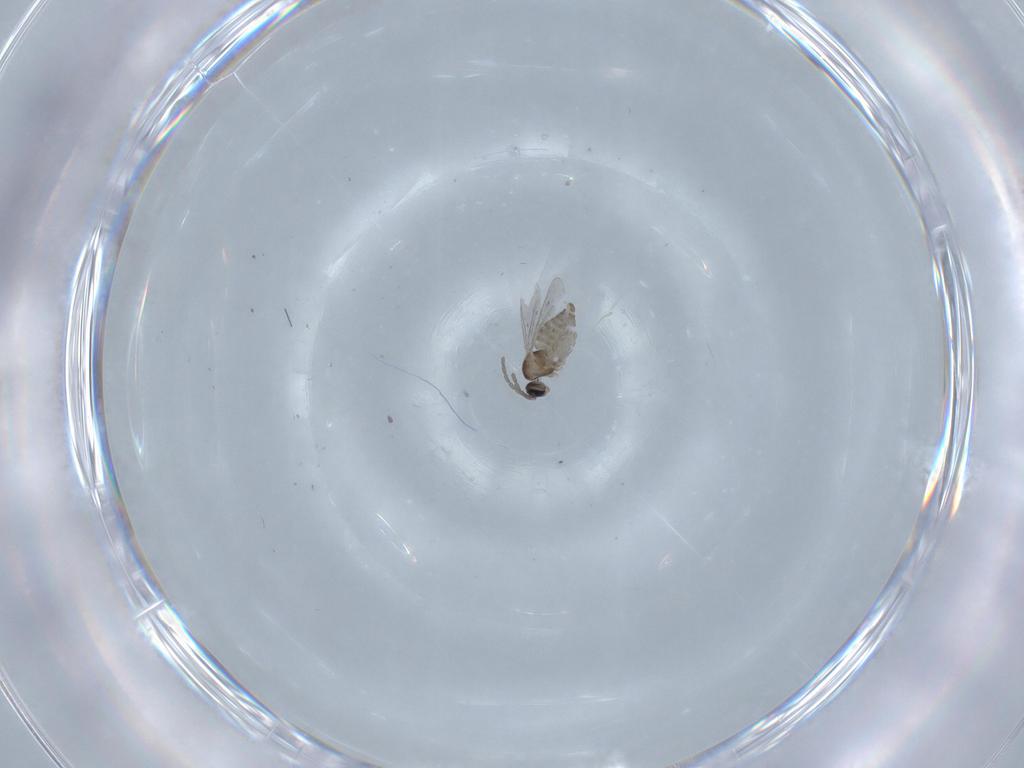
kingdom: Animalia
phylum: Arthropoda
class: Insecta
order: Diptera
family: Cecidomyiidae
